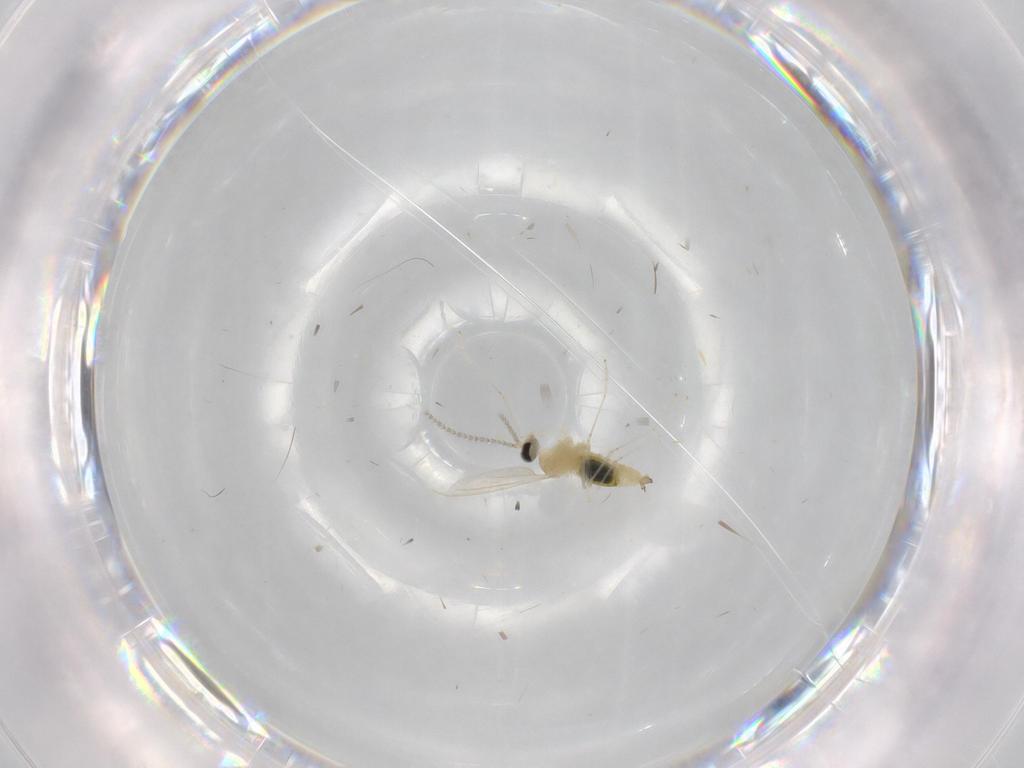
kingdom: Animalia
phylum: Arthropoda
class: Insecta
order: Diptera
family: Cecidomyiidae
